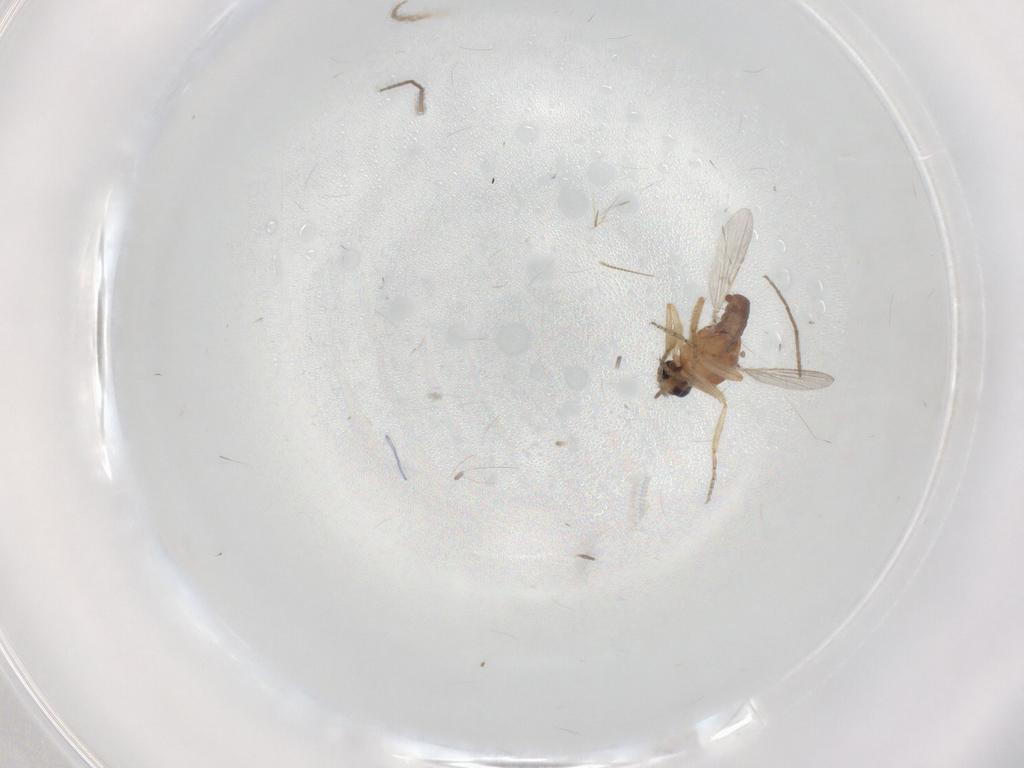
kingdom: Animalia
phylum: Arthropoda
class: Insecta
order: Diptera
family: Ceratopogonidae
